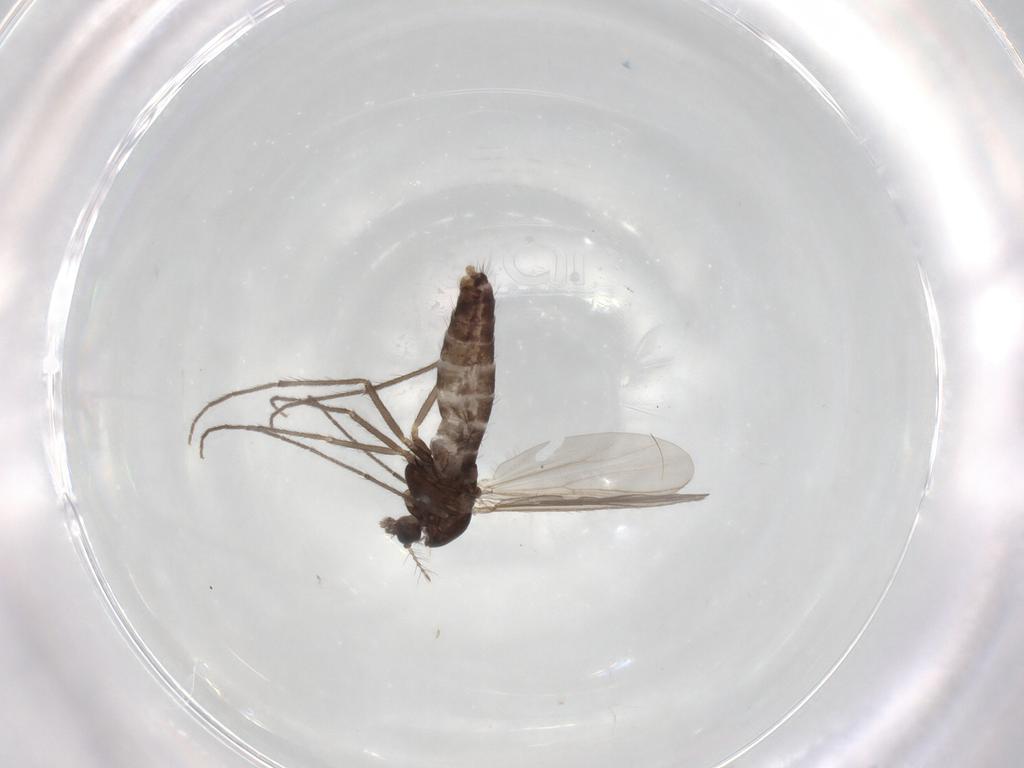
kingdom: Animalia
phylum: Arthropoda
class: Insecta
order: Diptera
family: Chironomidae
